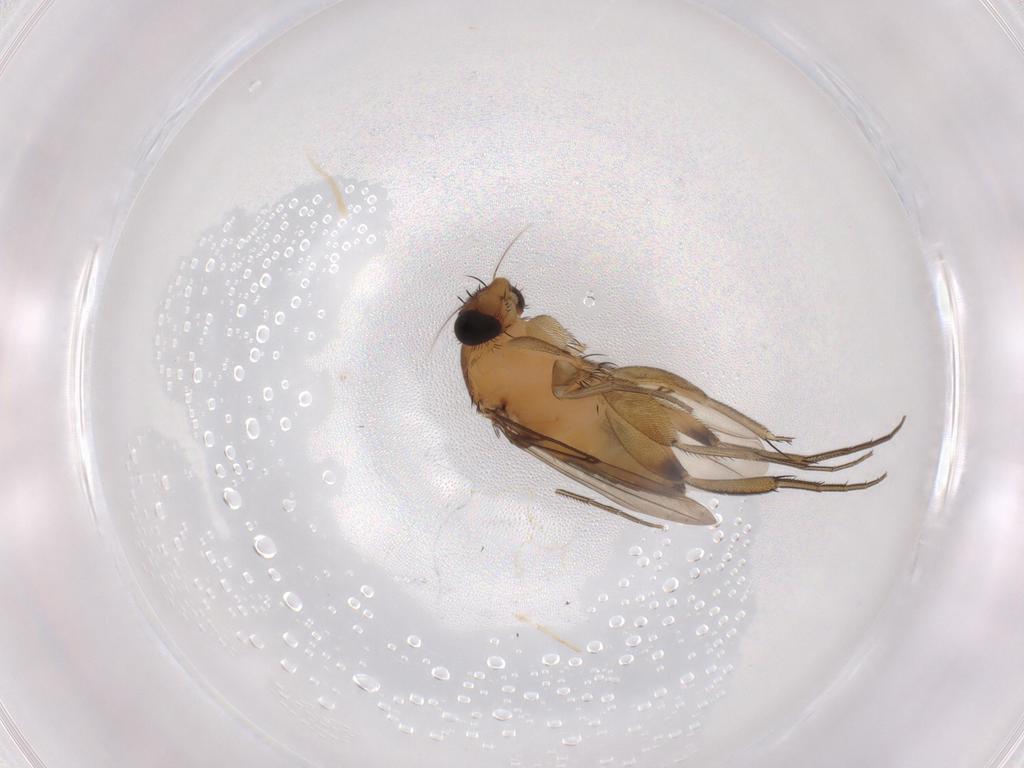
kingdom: Animalia
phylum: Arthropoda
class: Insecta
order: Diptera
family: Phoridae
